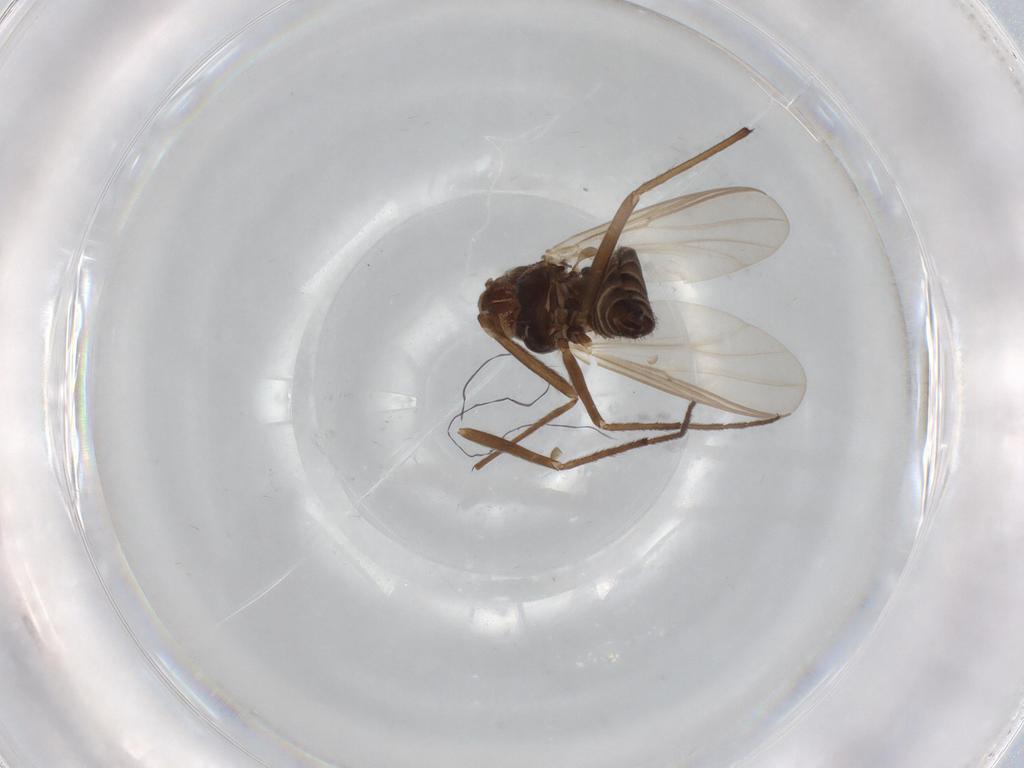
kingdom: Animalia
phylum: Arthropoda
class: Insecta
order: Diptera
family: Chironomidae
